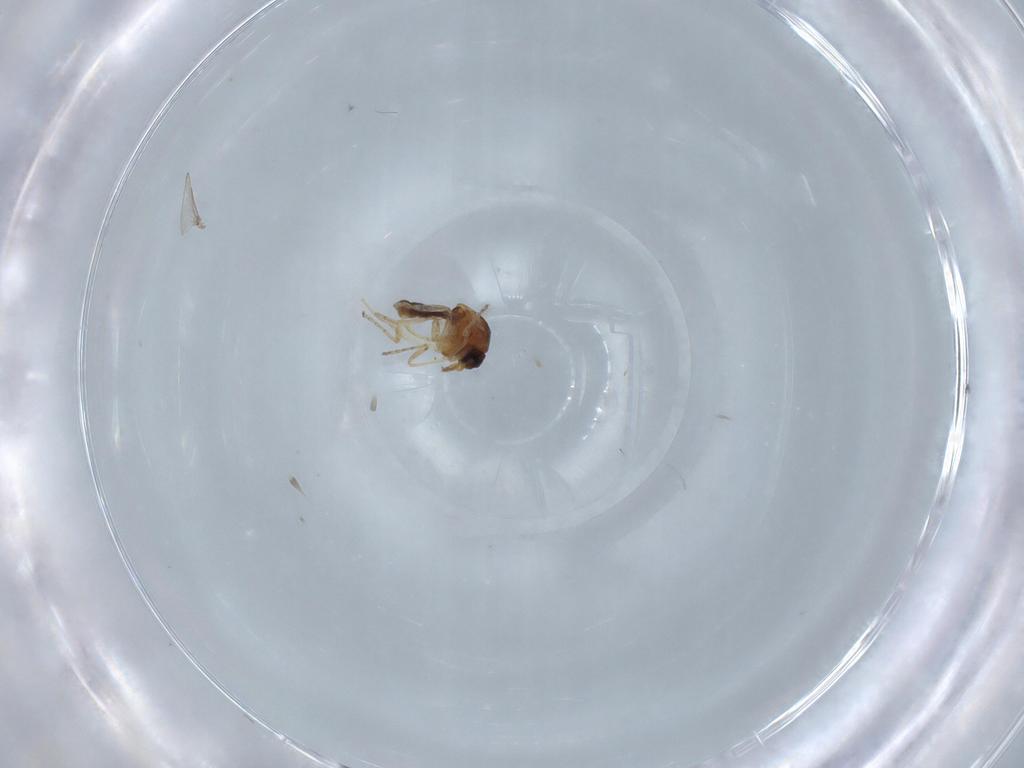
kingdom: Animalia
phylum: Arthropoda
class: Insecta
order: Diptera
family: Ceratopogonidae
